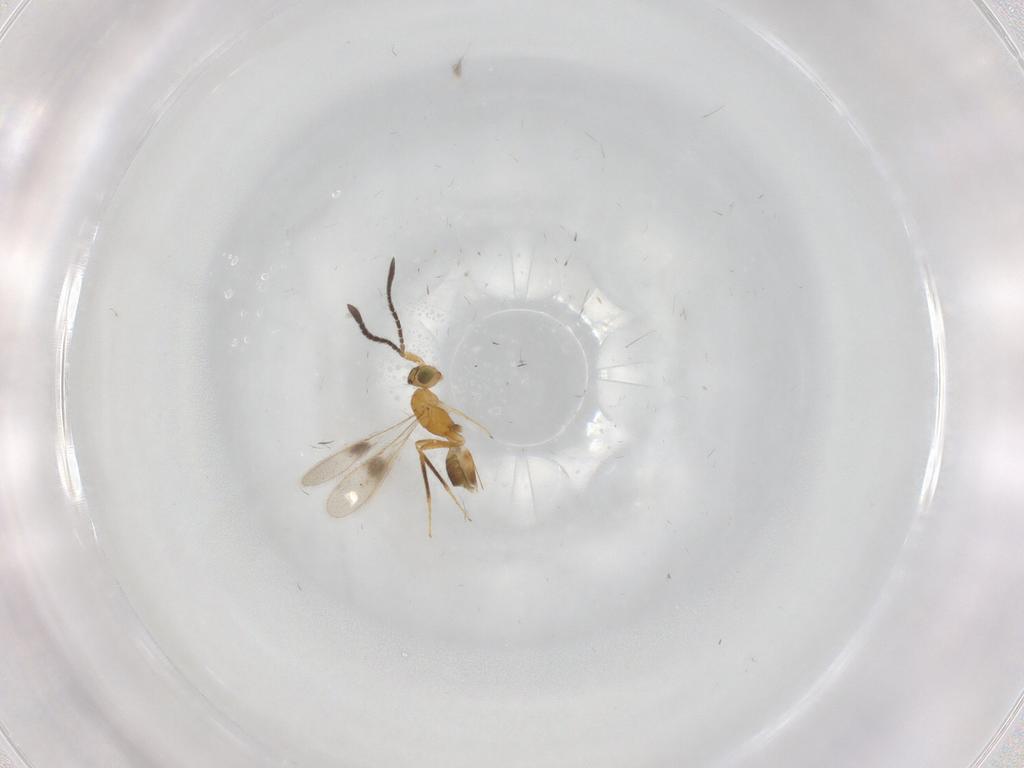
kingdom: Animalia
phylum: Arthropoda
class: Insecta
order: Hymenoptera
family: Mymaridae
